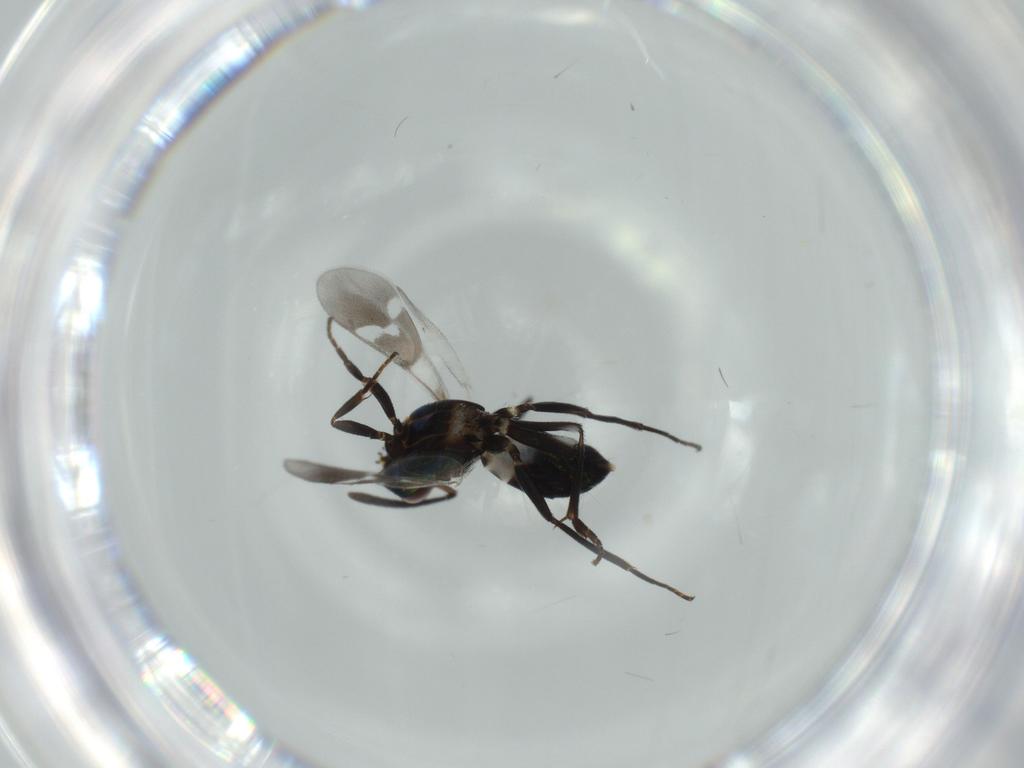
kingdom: Animalia
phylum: Arthropoda
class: Insecta
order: Hymenoptera
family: Eupelmidae
